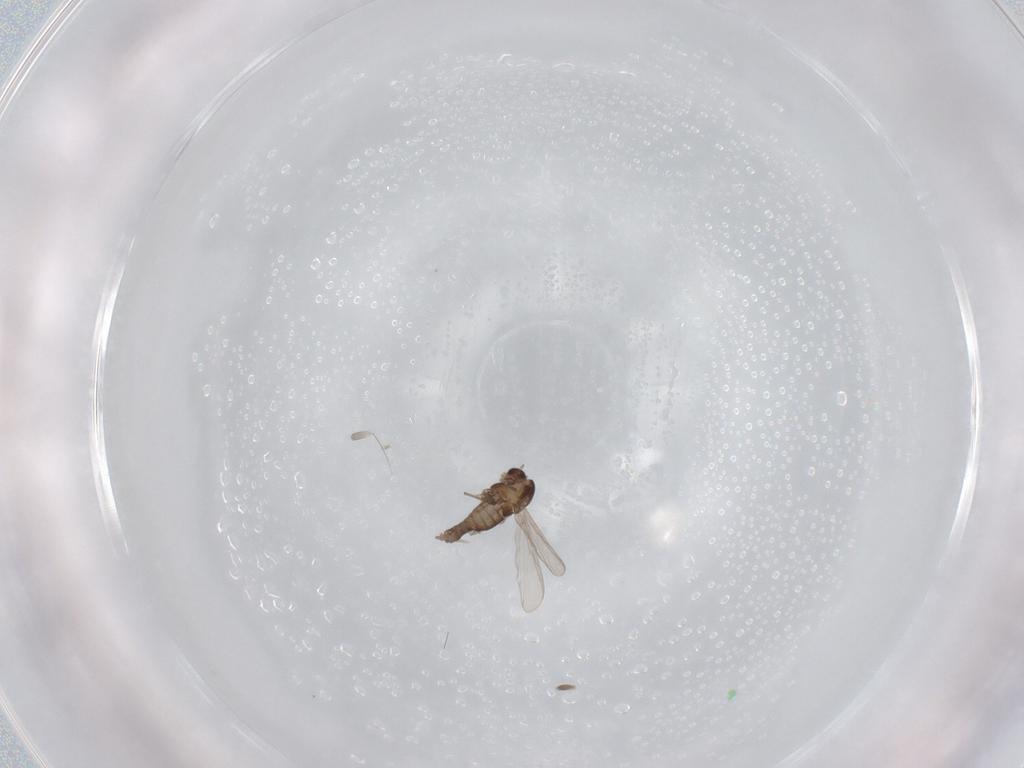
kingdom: Animalia
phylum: Arthropoda
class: Insecta
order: Diptera
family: Chironomidae
